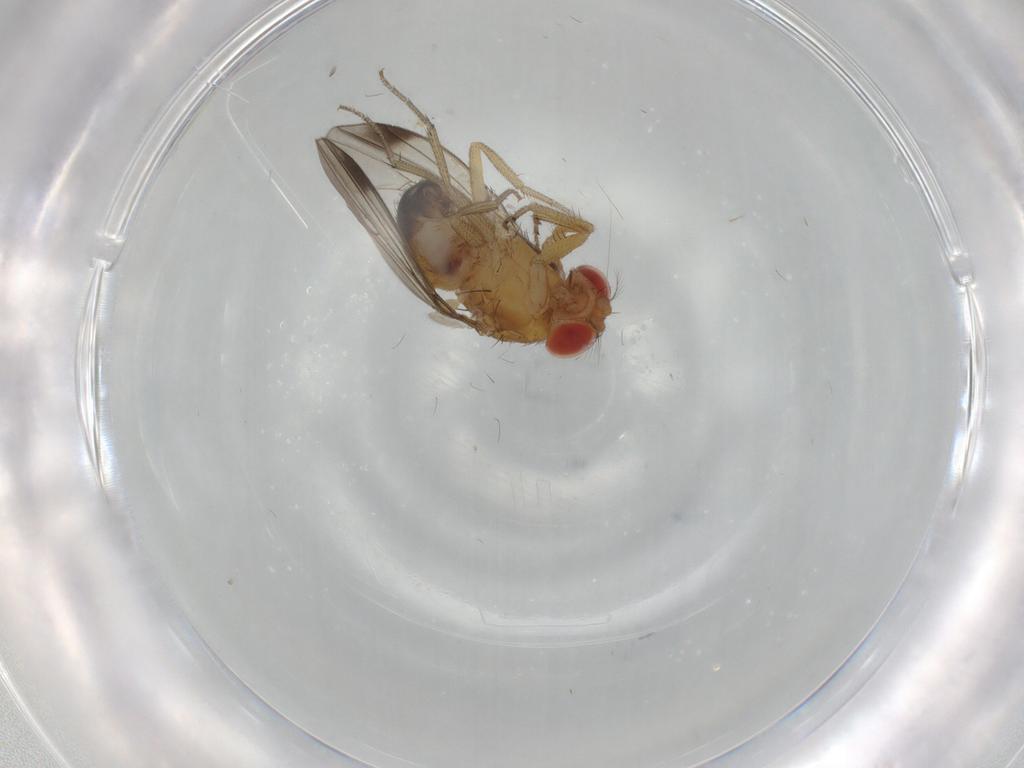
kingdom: Animalia
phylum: Arthropoda
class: Insecta
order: Diptera
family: Drosophilidae
